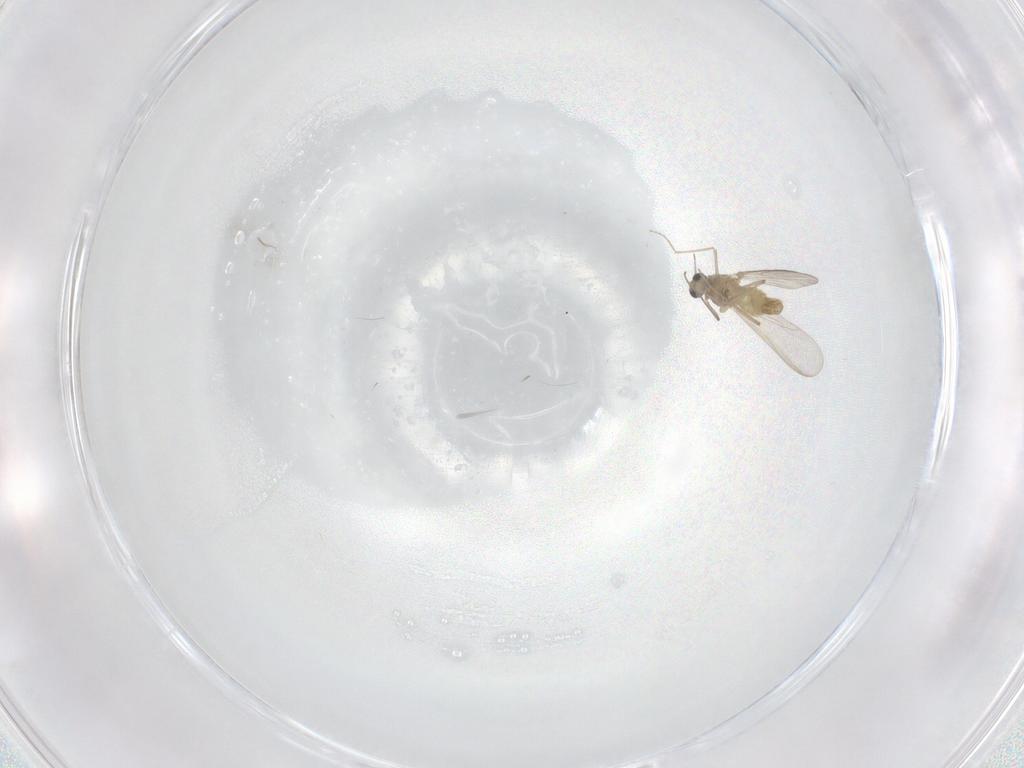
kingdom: Animalia
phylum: Arthropoda
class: Insecta
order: Diptera
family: Chironomidae
